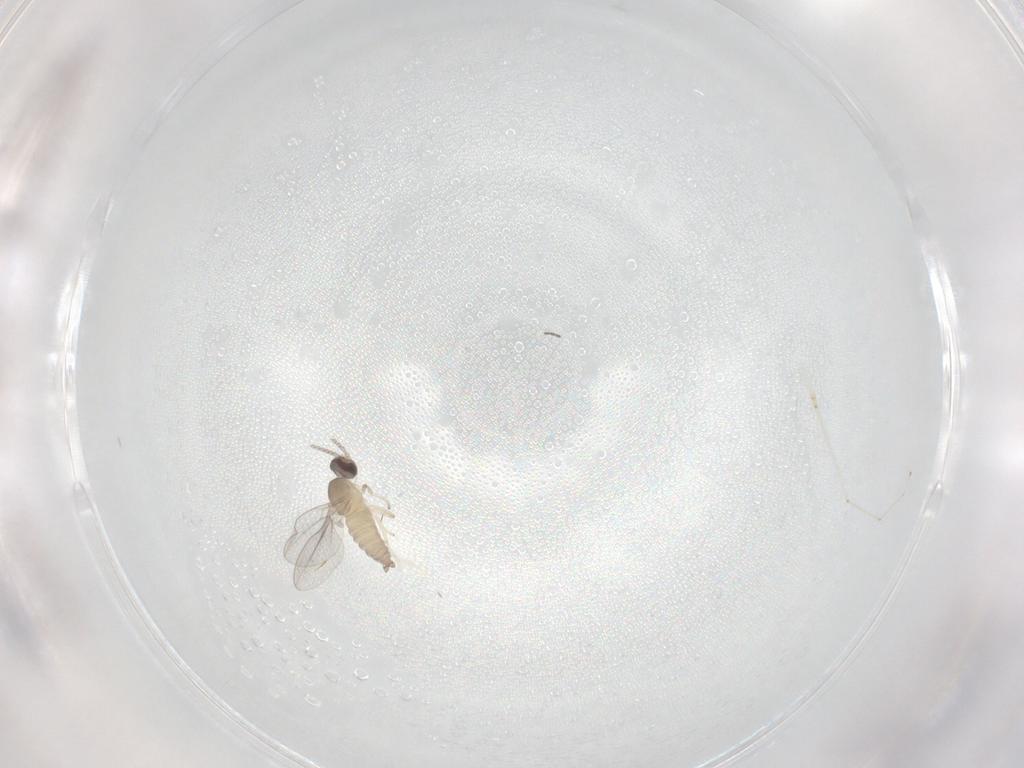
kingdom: Animalia
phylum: Arthropoda
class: Insecta
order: Diptera
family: Cecidomyiidae
